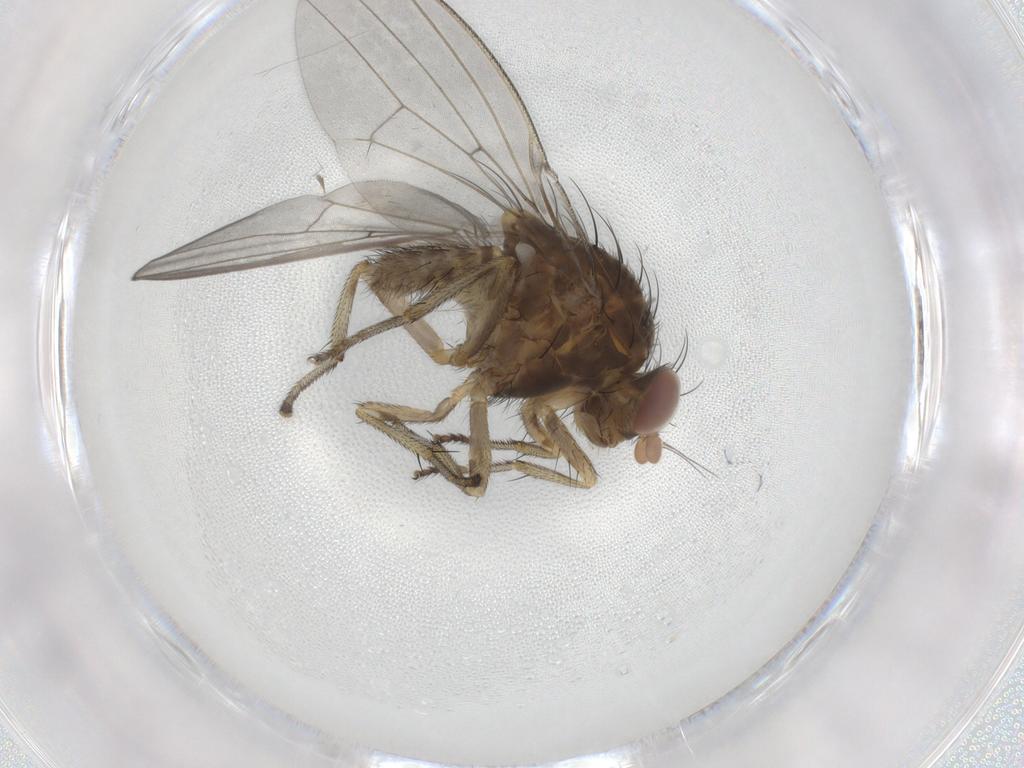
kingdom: Animalia
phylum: Arthropoda
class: Insecta
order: Diptera
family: Lauxaniidae
